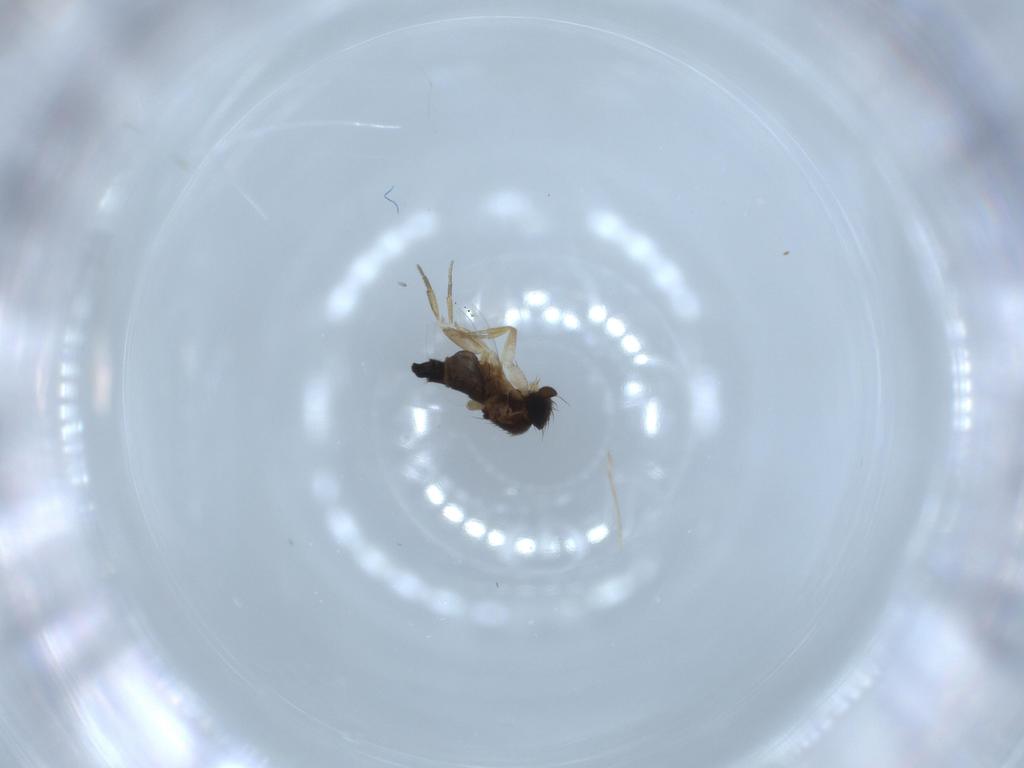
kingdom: Animalia
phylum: Arthropoda
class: Insecta
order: Diptera
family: Phoridae
